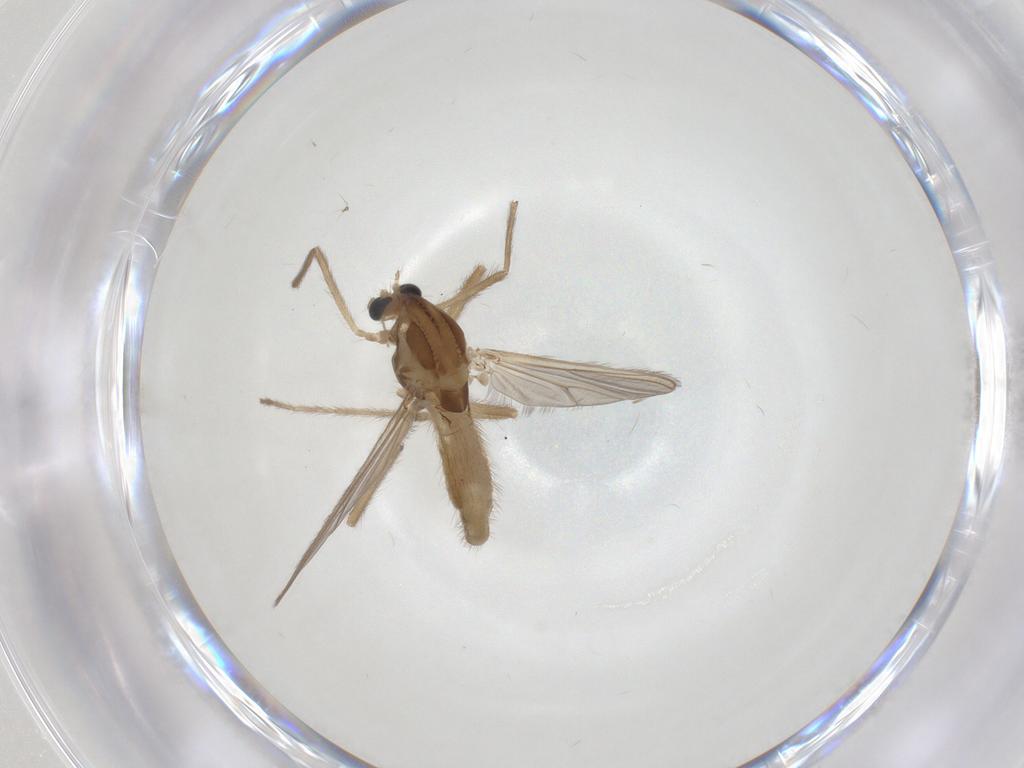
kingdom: Animalia
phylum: Arthropoda
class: Insecta
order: Diptera
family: Chironomidae
